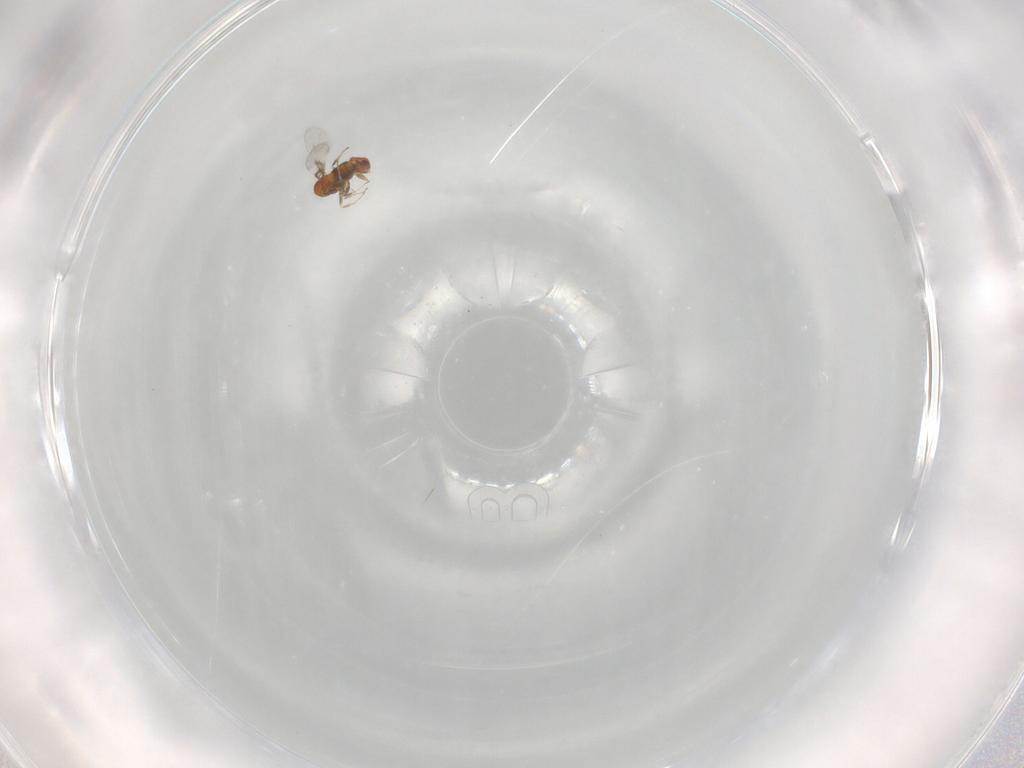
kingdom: Animalia
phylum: Arthropoda
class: Insecta
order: Hymenoptera
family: Trichogrammatidae
